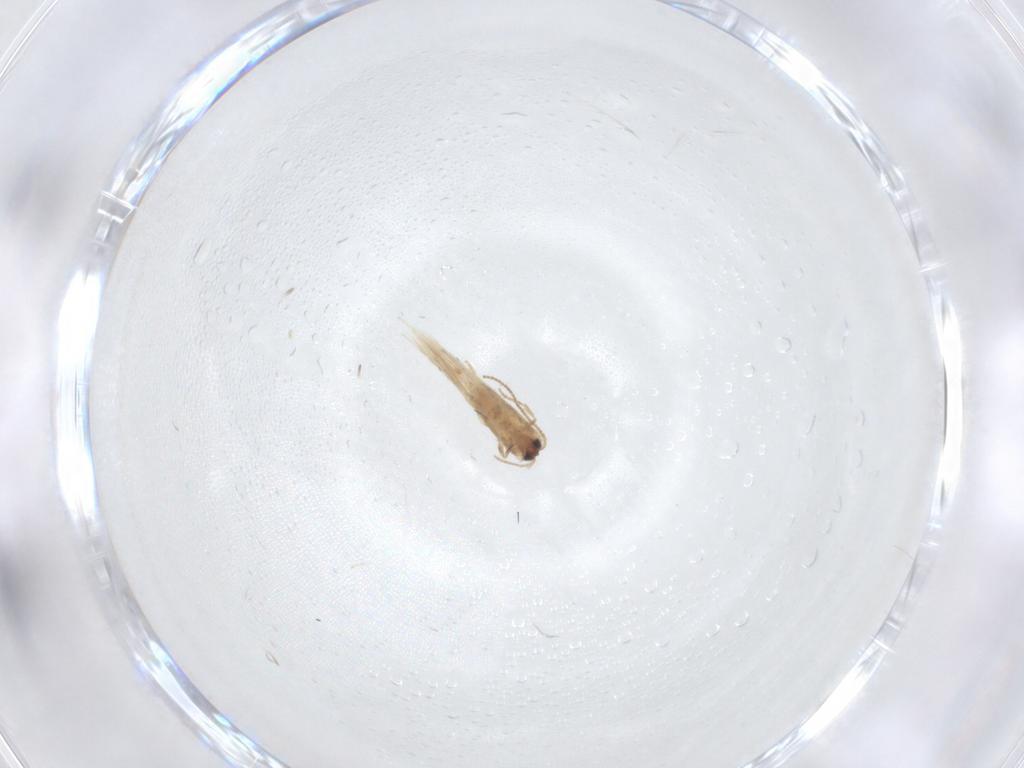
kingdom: Animalia
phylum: Arthropoda
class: Insecta
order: Lepidoptera
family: Nepticulidae
